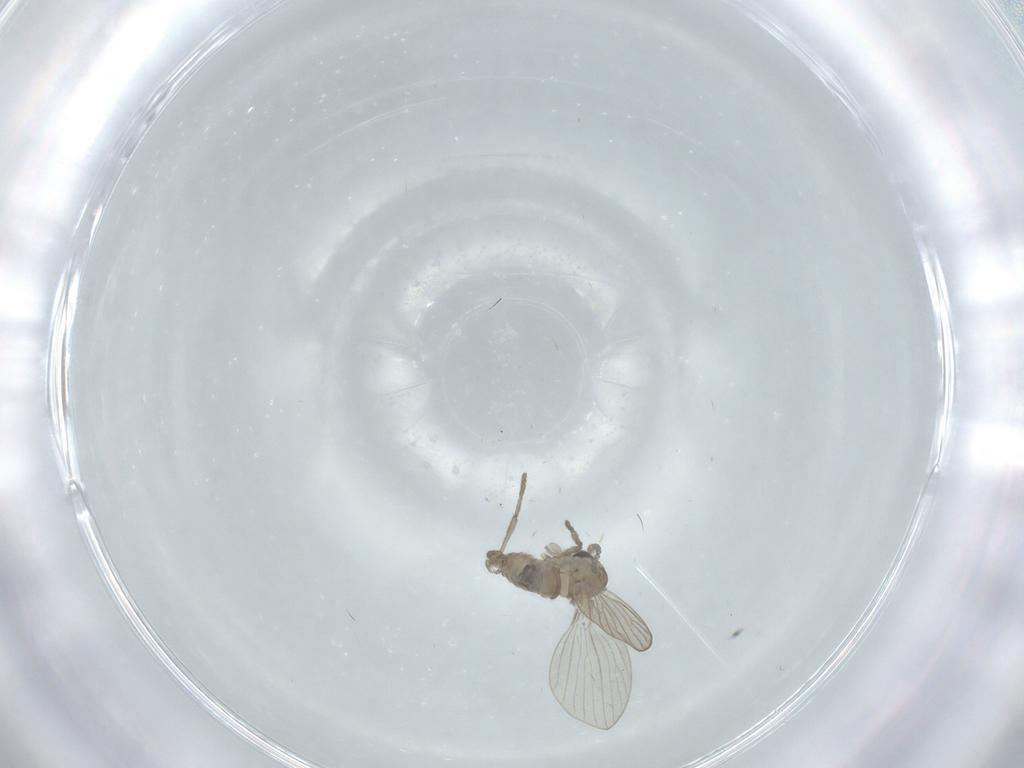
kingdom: Animalia
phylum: Arthropoda
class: Insecta
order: Diptera
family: Psychodidae
